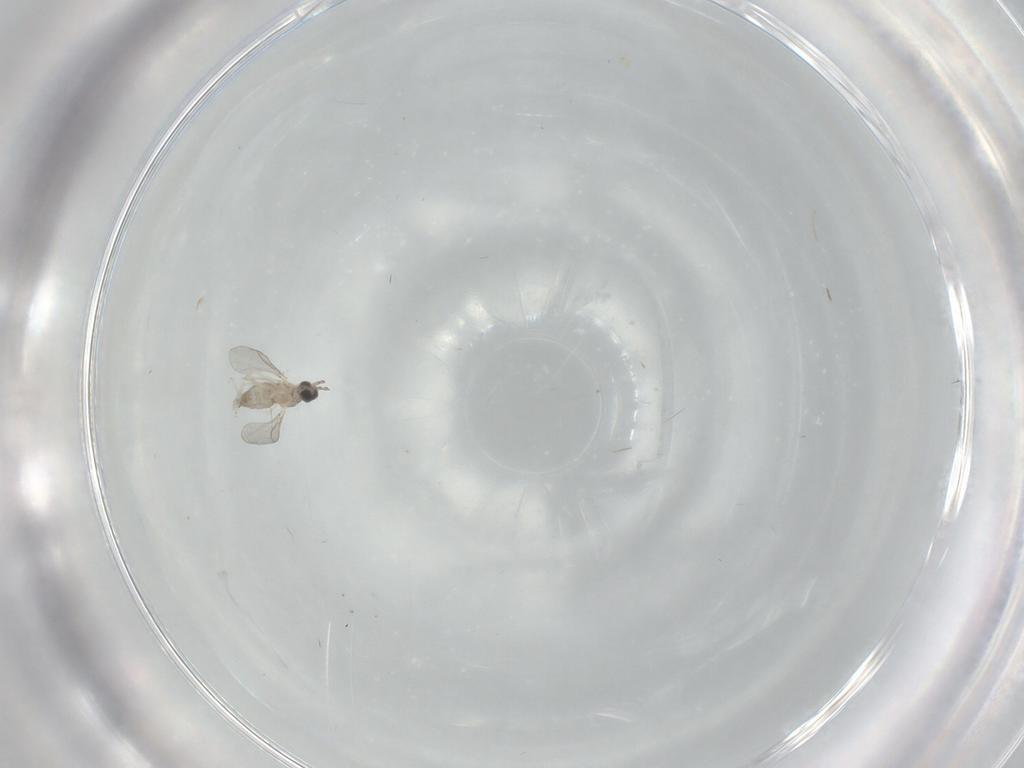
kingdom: Animalia
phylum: Arthropoda
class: Insecta
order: Diptera
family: Cecidomyiidae
